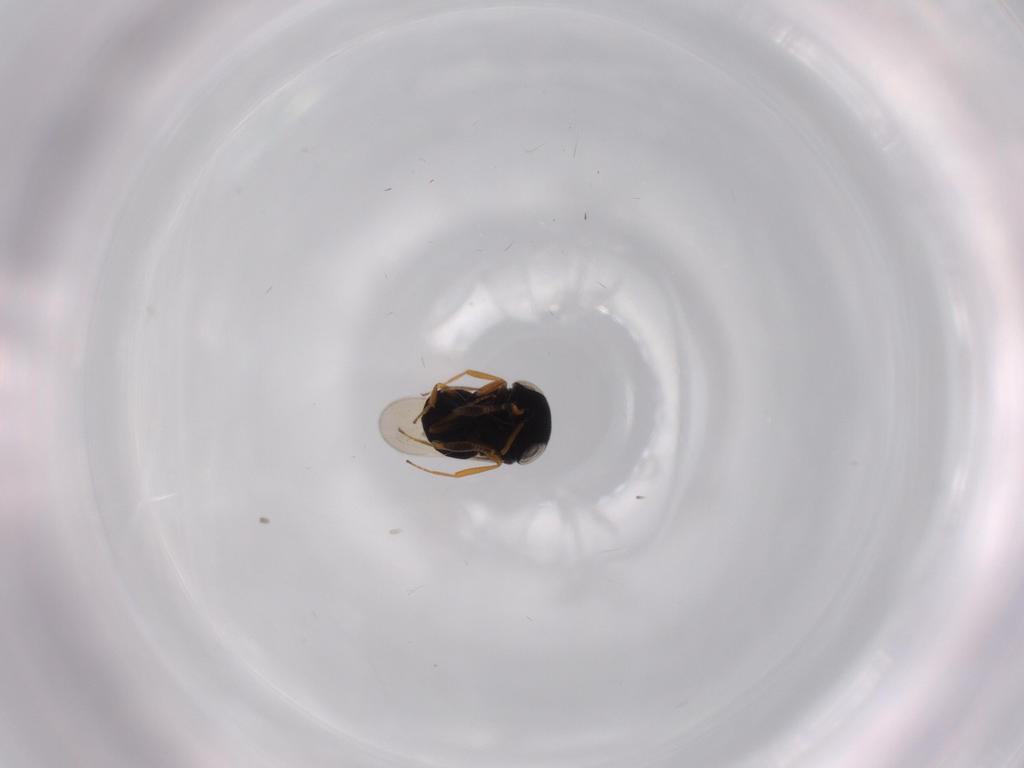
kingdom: Animalia
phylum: Arthropoda
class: Insecta
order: Hymenoptera
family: Scelionidae
